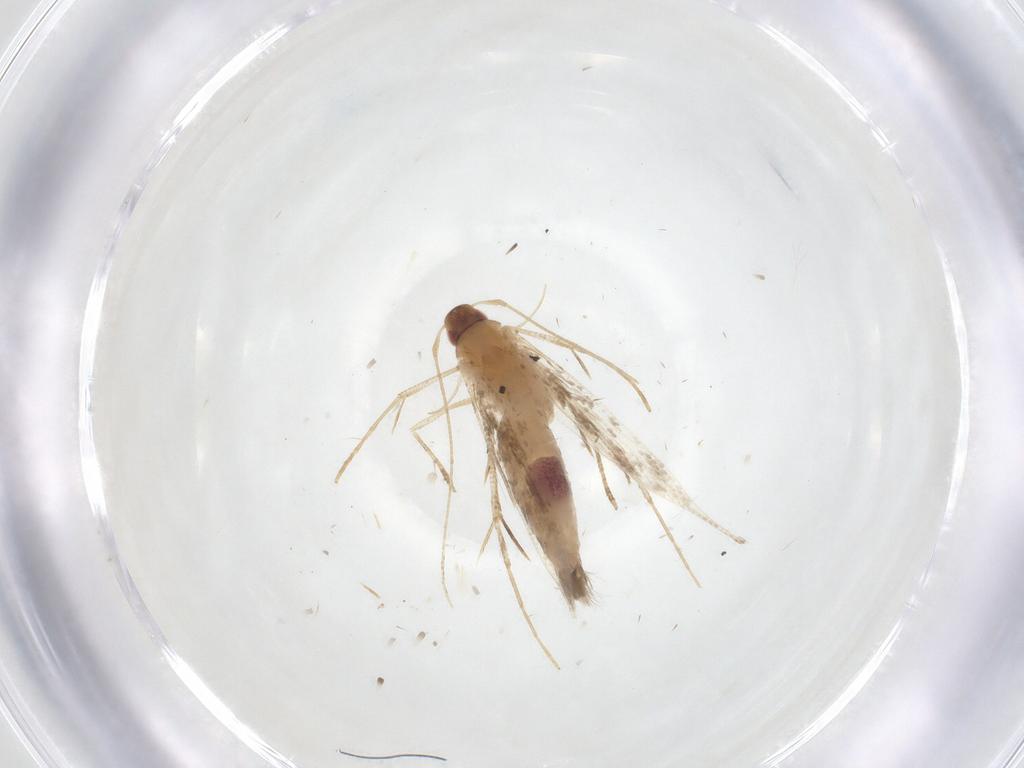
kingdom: Animalia
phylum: Arthropoda
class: Insecta
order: Lepidoptera
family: Cosmopterigidae
